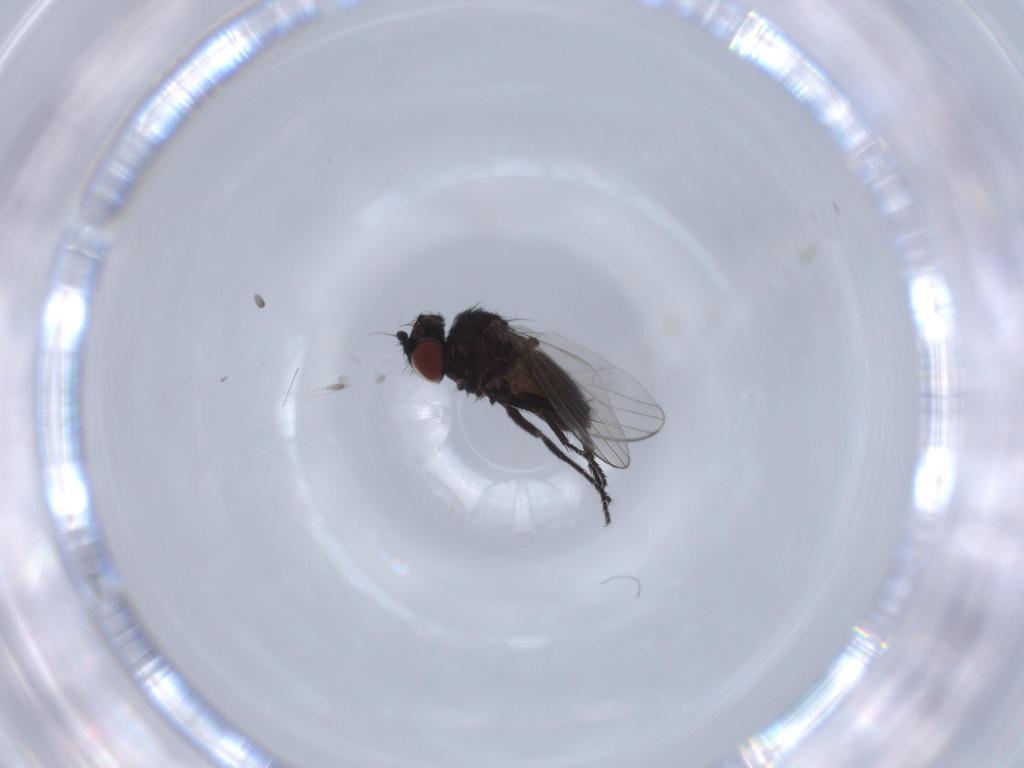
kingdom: Animalia
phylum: Arthropoda
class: Insecta
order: Diptera
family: Milichiidae
